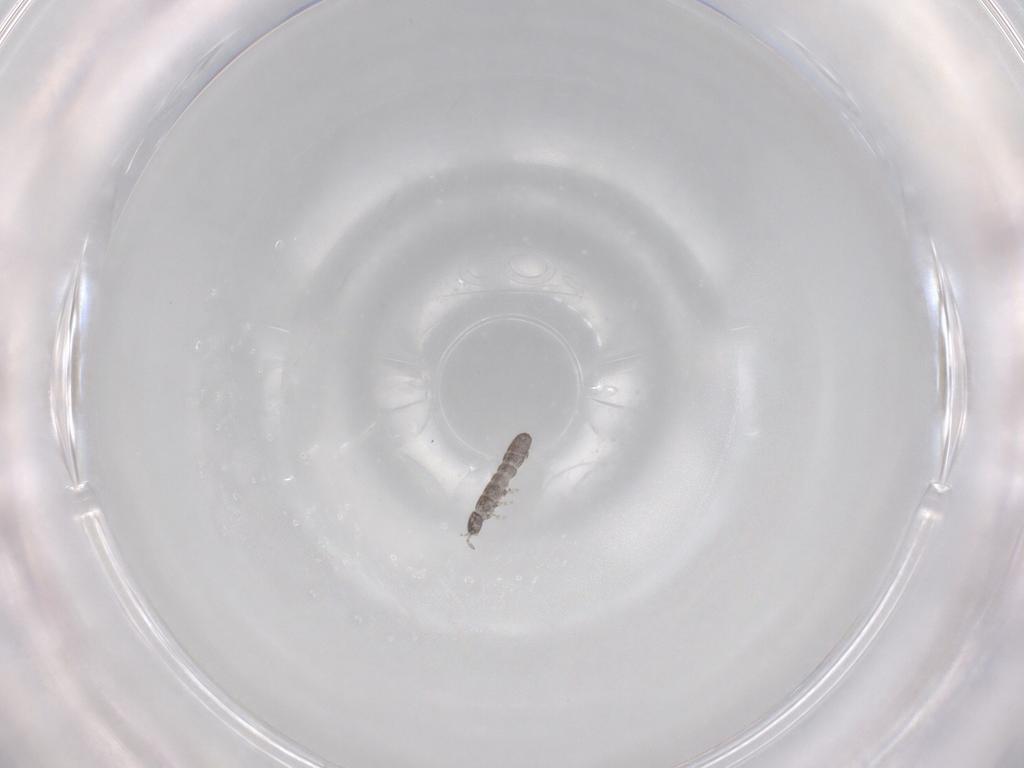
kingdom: Animalia
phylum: Arthropoda
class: Collembola
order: Entomobryomorpha
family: Isotomidae
